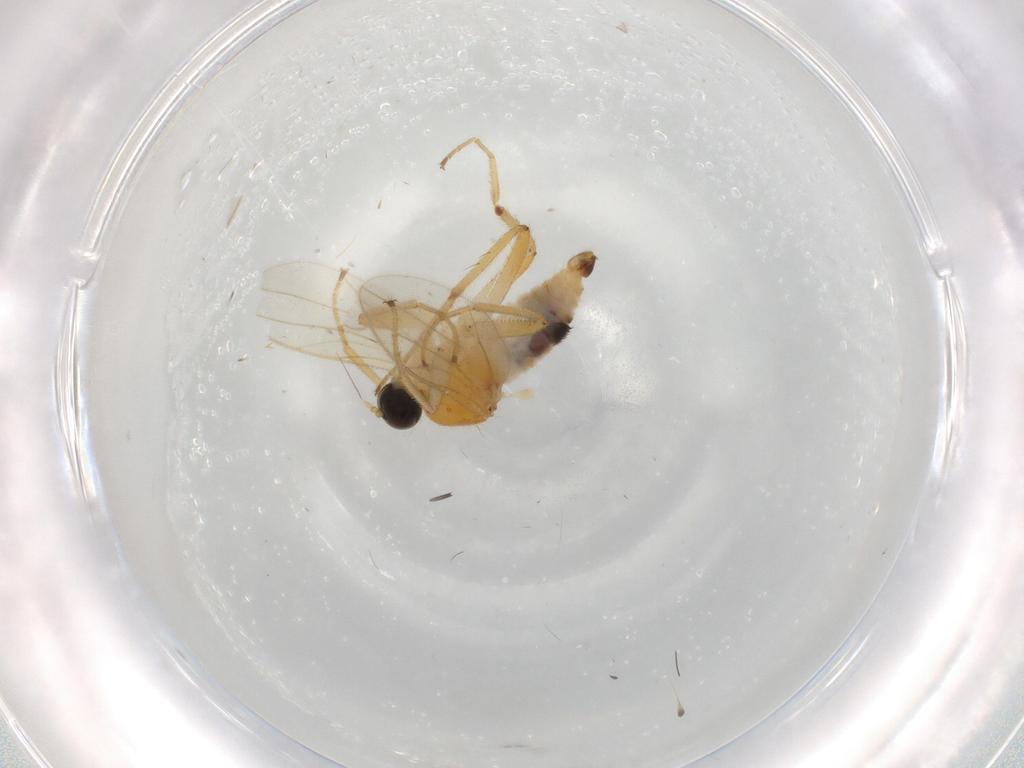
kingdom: Animalia
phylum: Arthropoda
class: Insecta
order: Diptera
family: Hybotidae
